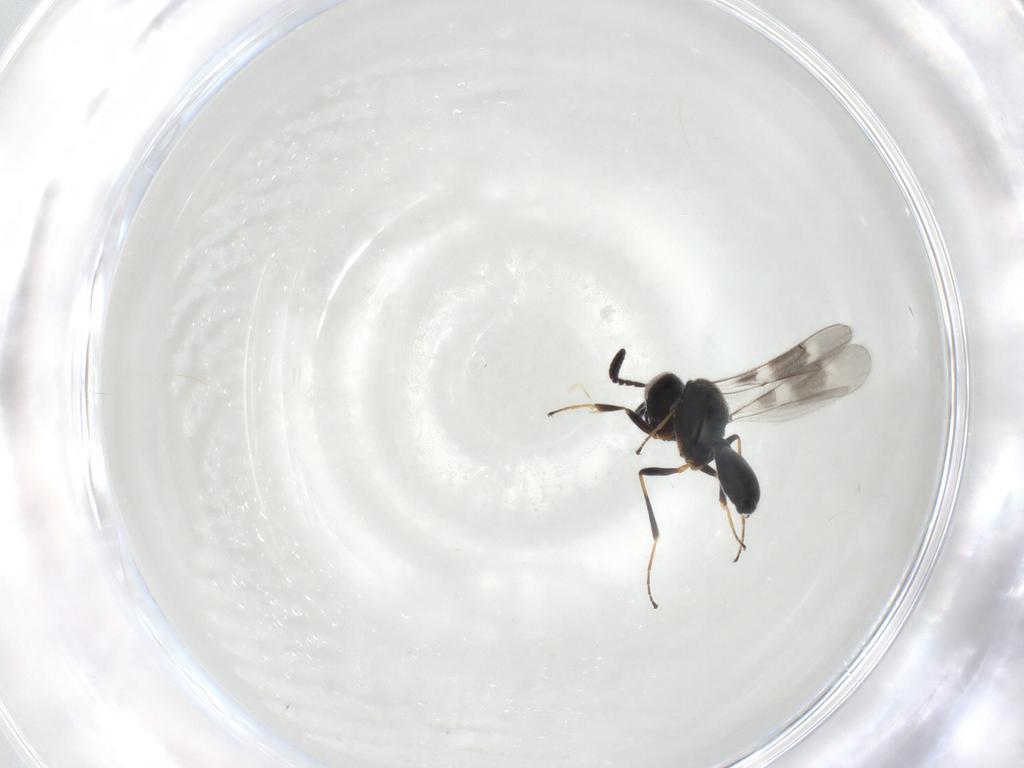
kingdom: Animalia
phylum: Arthropoda
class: Insecta
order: Hymenoptera
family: Scelionidae
